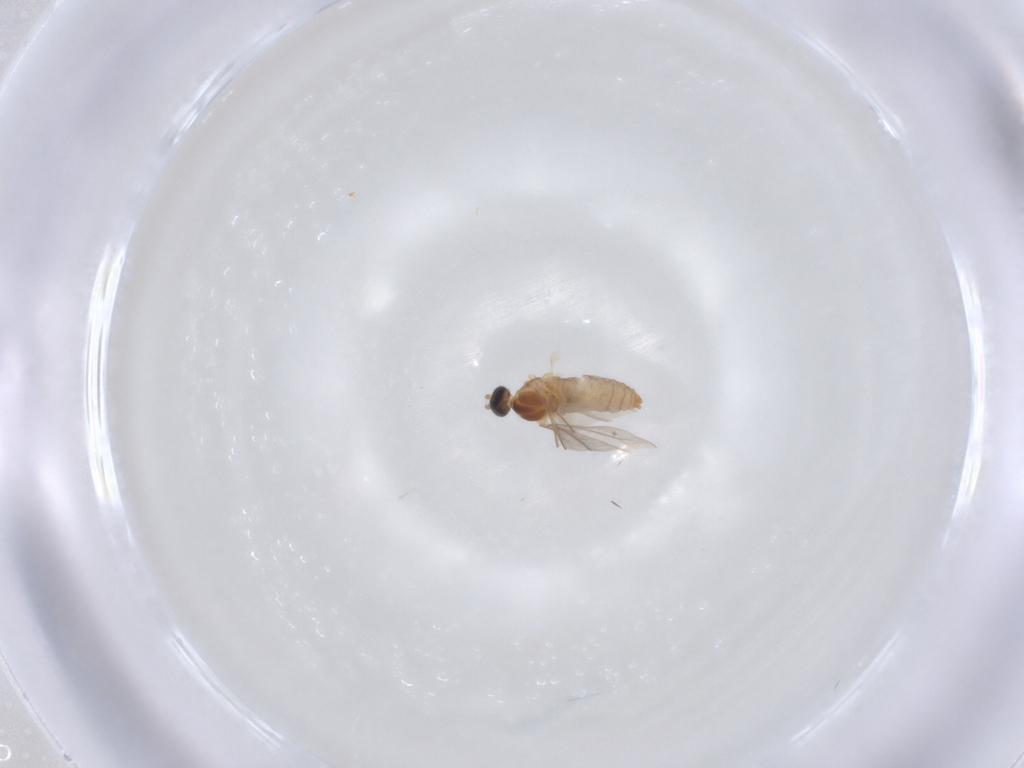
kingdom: Animalia
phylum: Arthropoda
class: Insecta
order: Diptera
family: Cecidomyiidae
